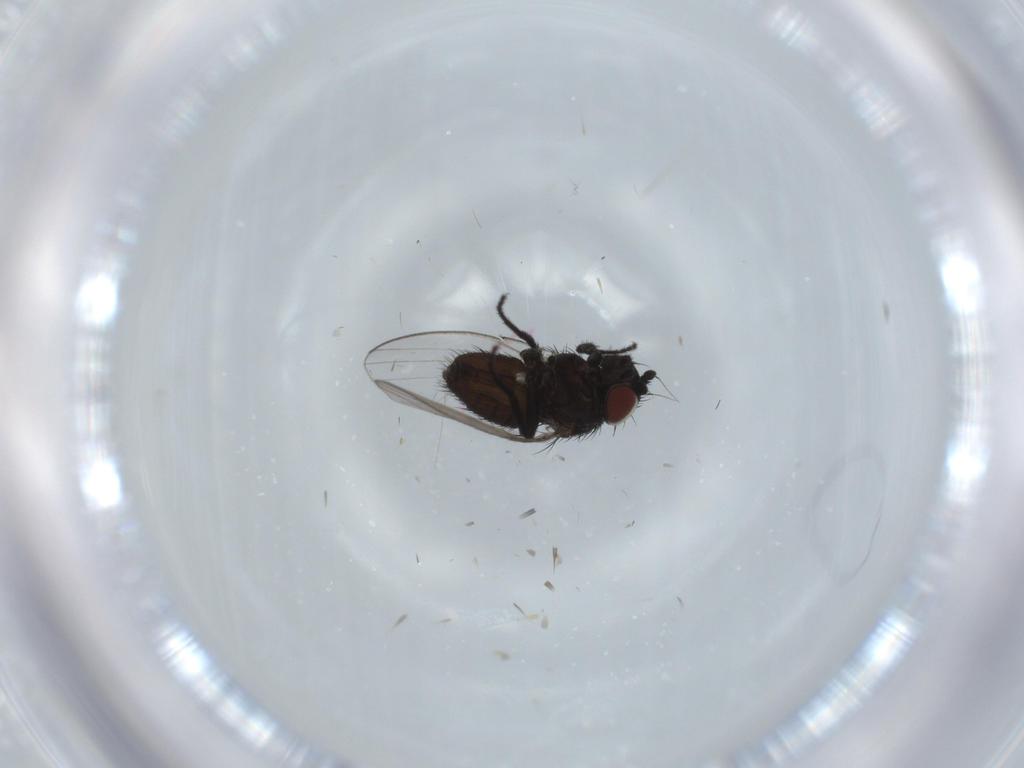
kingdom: Animalia
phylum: Arthropoda
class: Insecta
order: Diptera
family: Milichiidae
